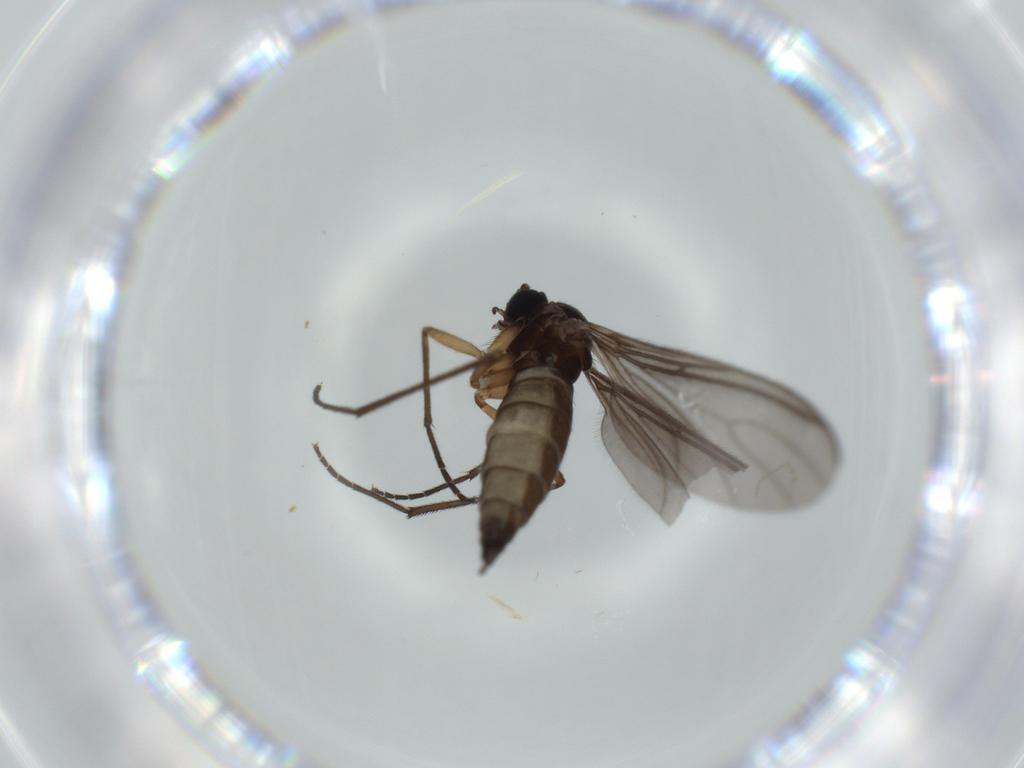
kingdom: Animalia
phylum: Arthropoda
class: Insecta
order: Diptera
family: Sciaridae
